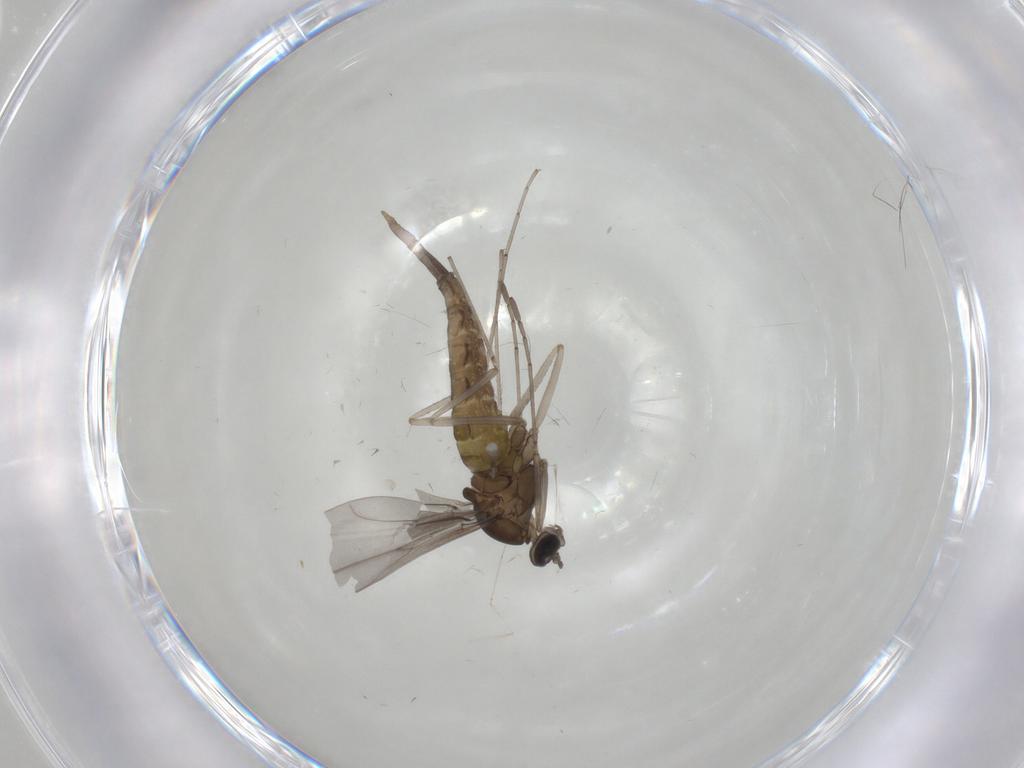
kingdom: Animalia
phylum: Arthropoda
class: Insecta
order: Diptera
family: Cecidomyiidae
